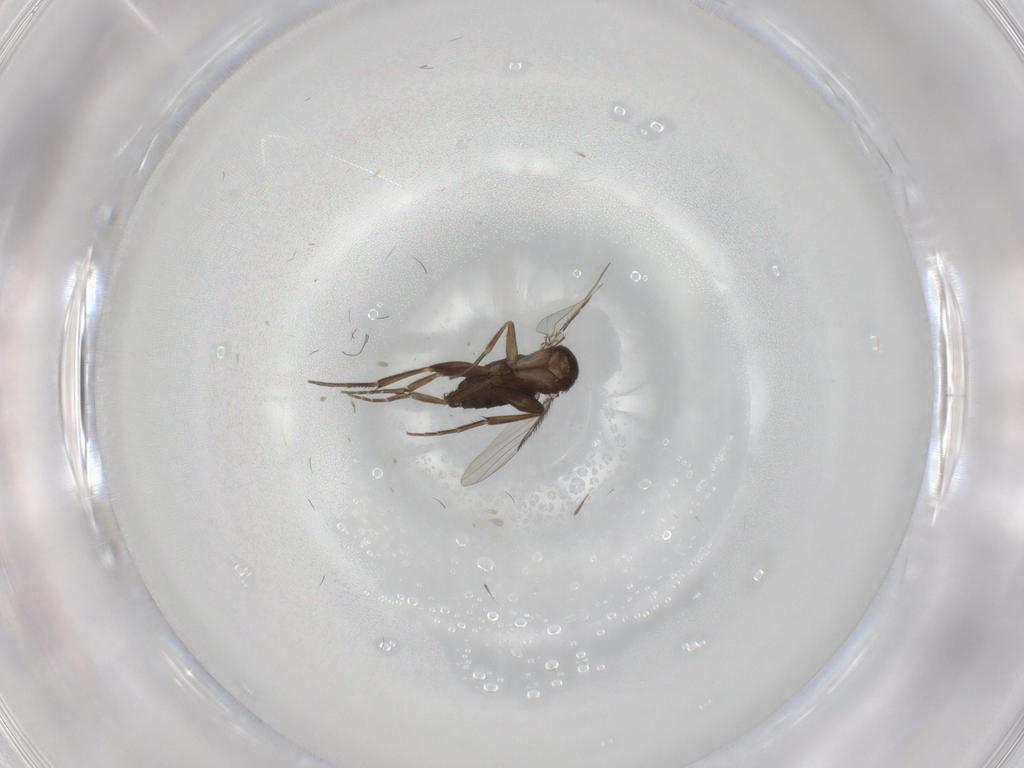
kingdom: Animalia
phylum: Arthropoda
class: Insecta
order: Diptera
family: Phoridae
